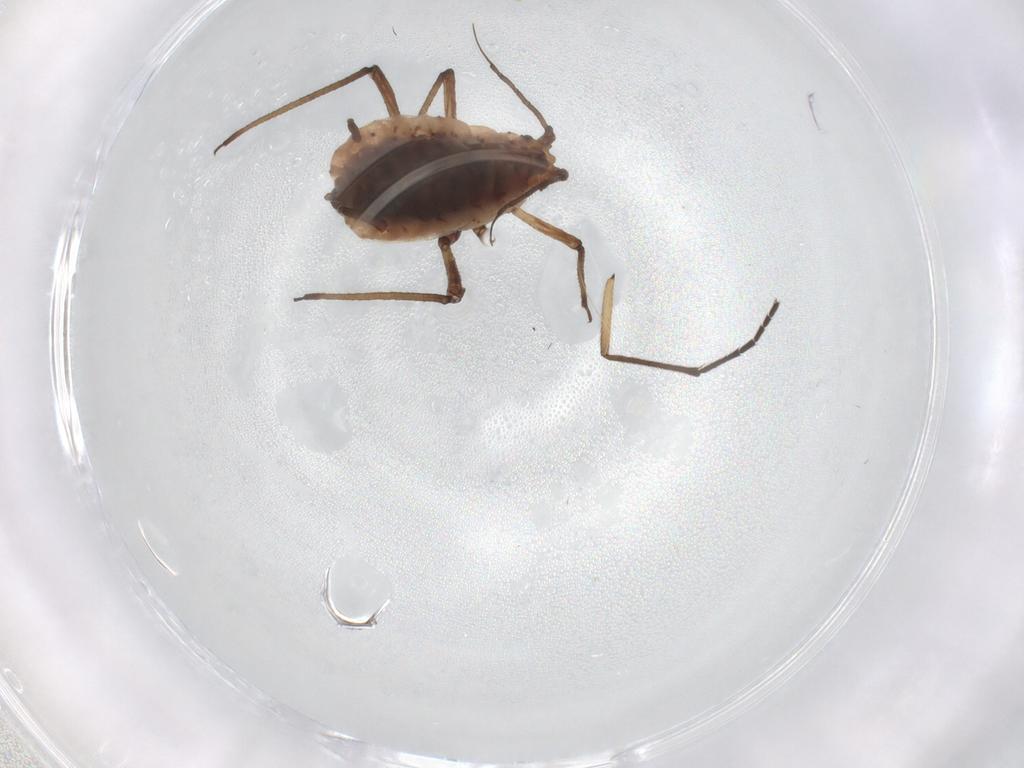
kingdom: Animalia
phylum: Arthropoda
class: Insecta
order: Hemiptera
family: Aphididae
